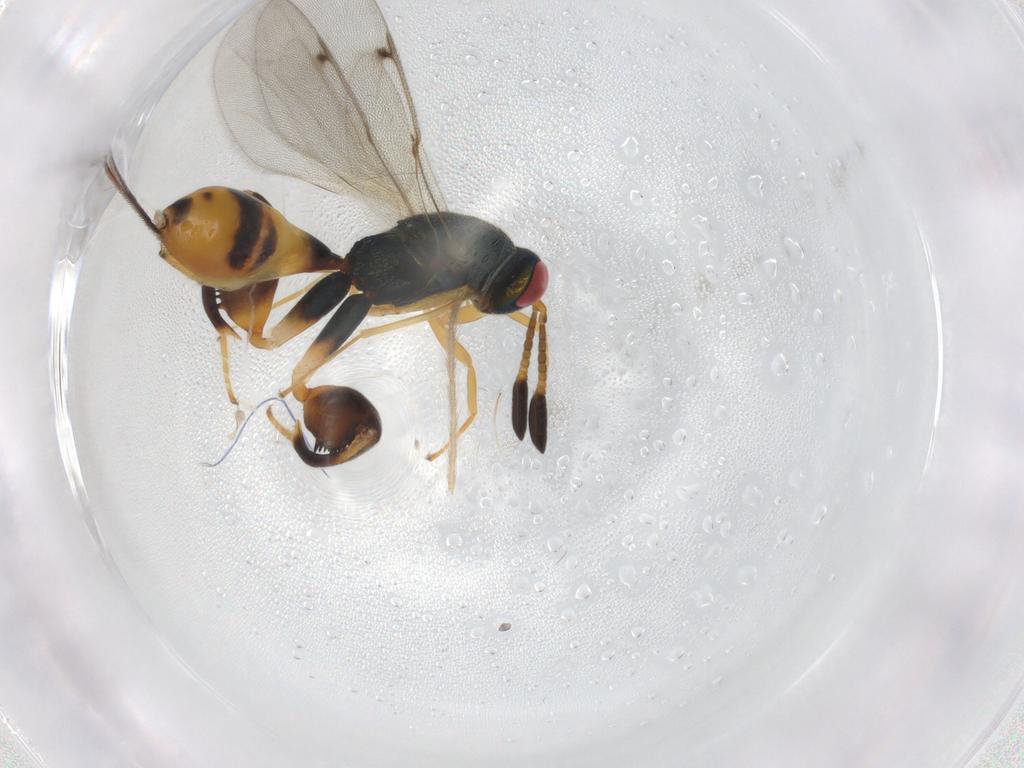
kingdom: Animalia
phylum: Arthropoda
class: Insecta
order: Hymenoptera
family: Torymidae
